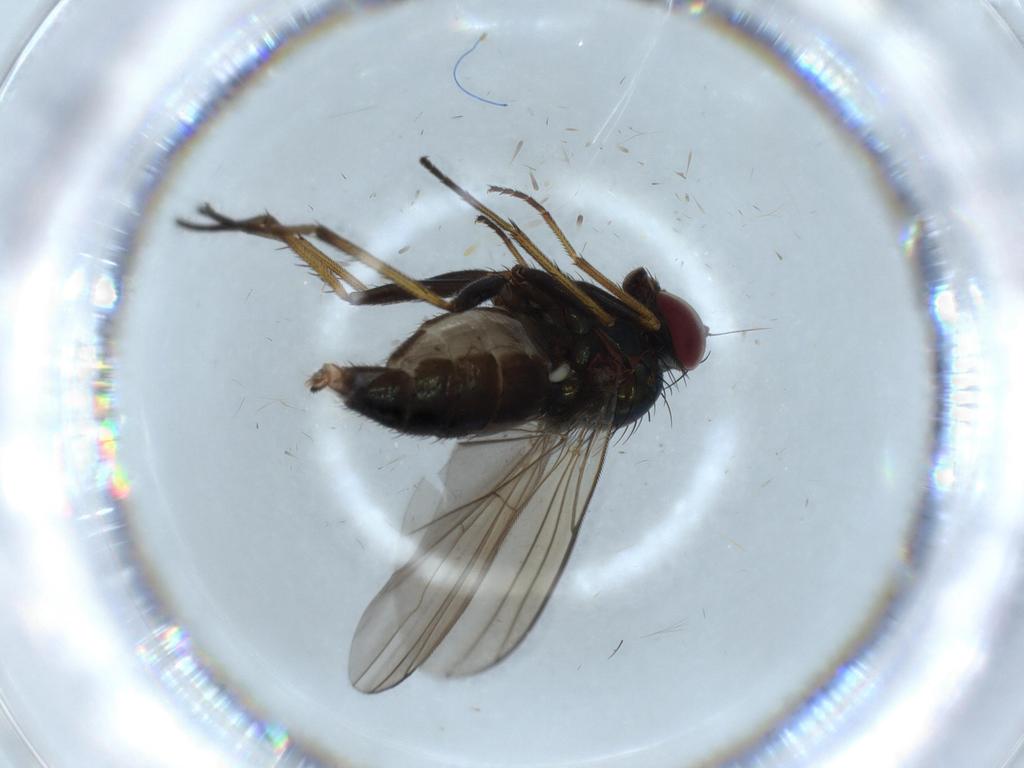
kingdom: Animalia
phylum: Arthropoda
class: Insecta
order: Diptera
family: Dolichopodidae
